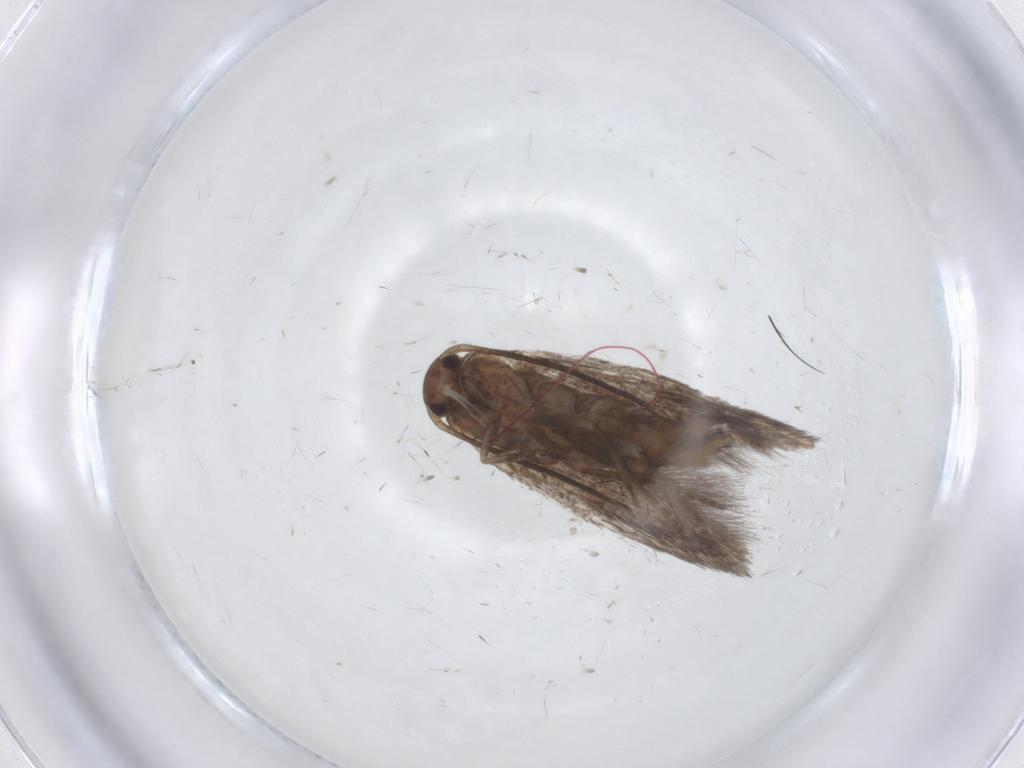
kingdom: Animalia
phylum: Arthropoda
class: Insecta
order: Lepidoptera
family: Elachistidae
